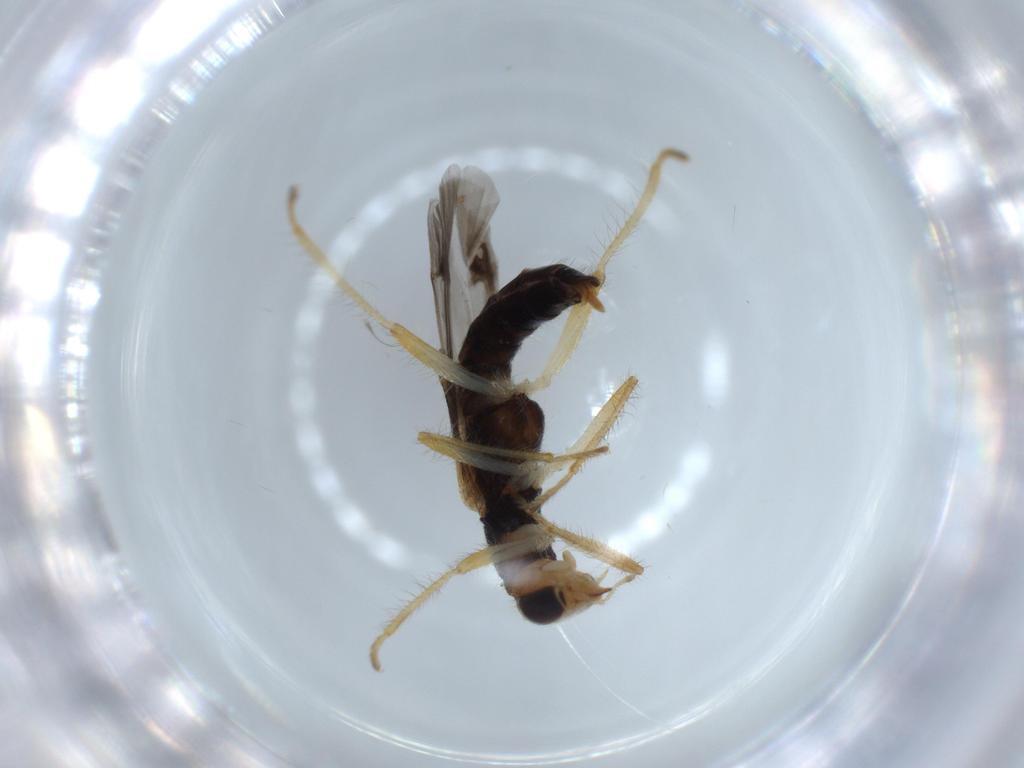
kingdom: Animalia
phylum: Arthropoda
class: Insecta
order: Coleoptera
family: Cleridae
